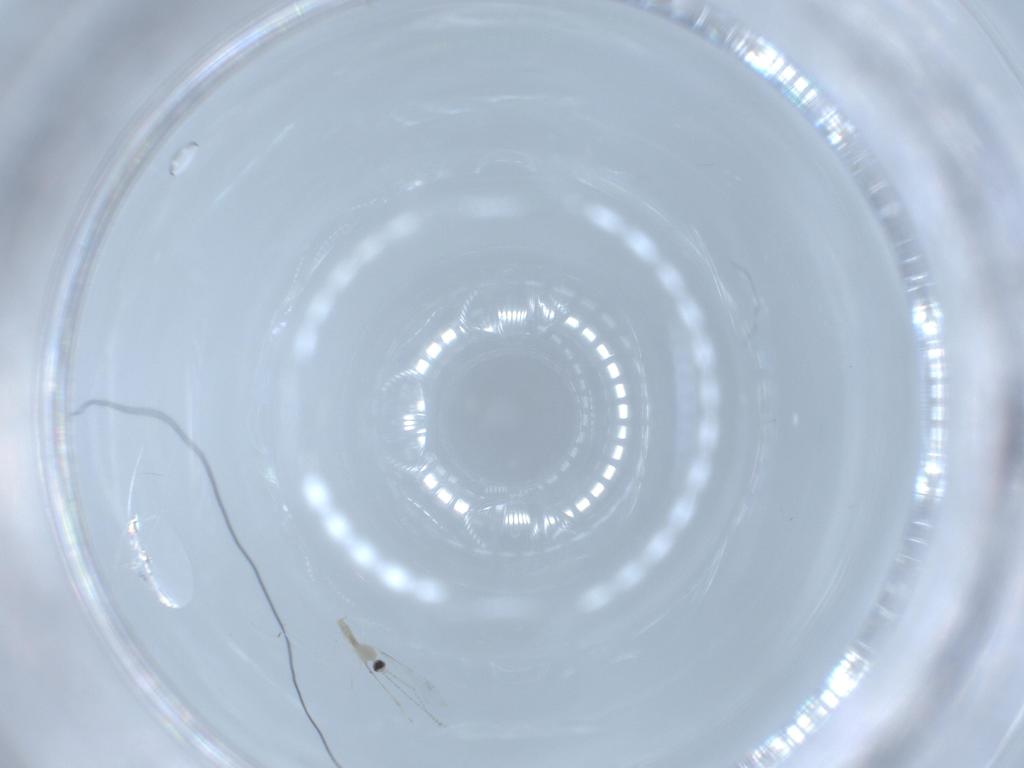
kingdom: Animalia
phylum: Arthropoda
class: Insecta
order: Diptera
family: Cecidomyiidae
